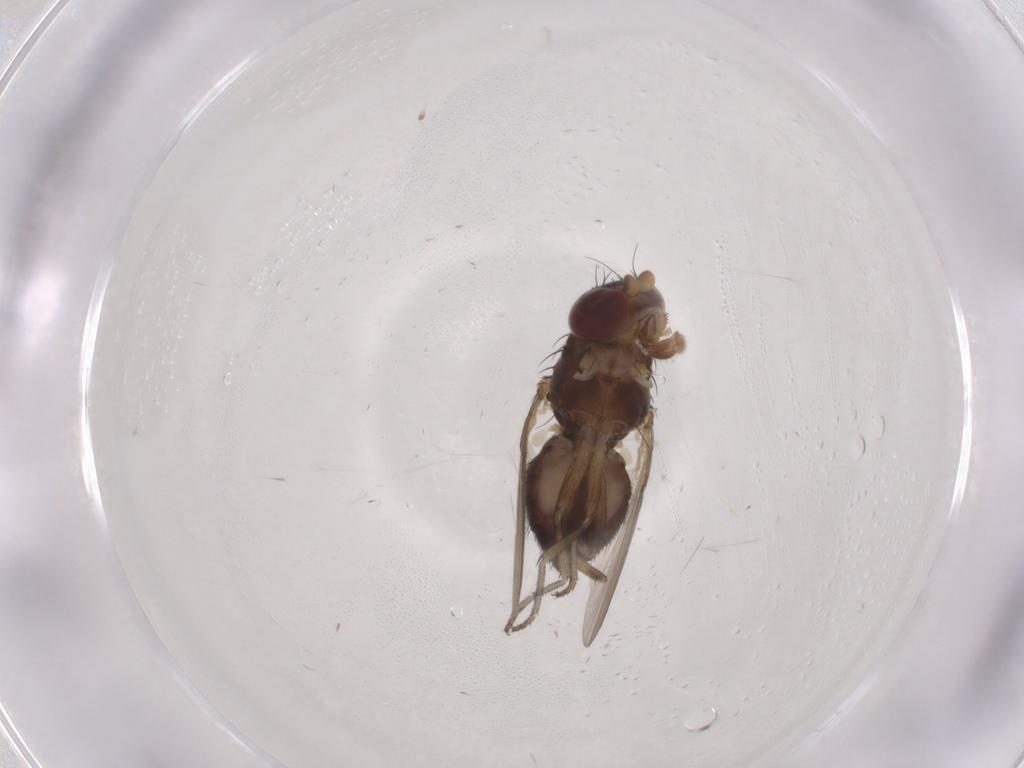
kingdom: Animalia
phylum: Arthropoda
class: Insecta
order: Diptera
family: Heleomyzidae
